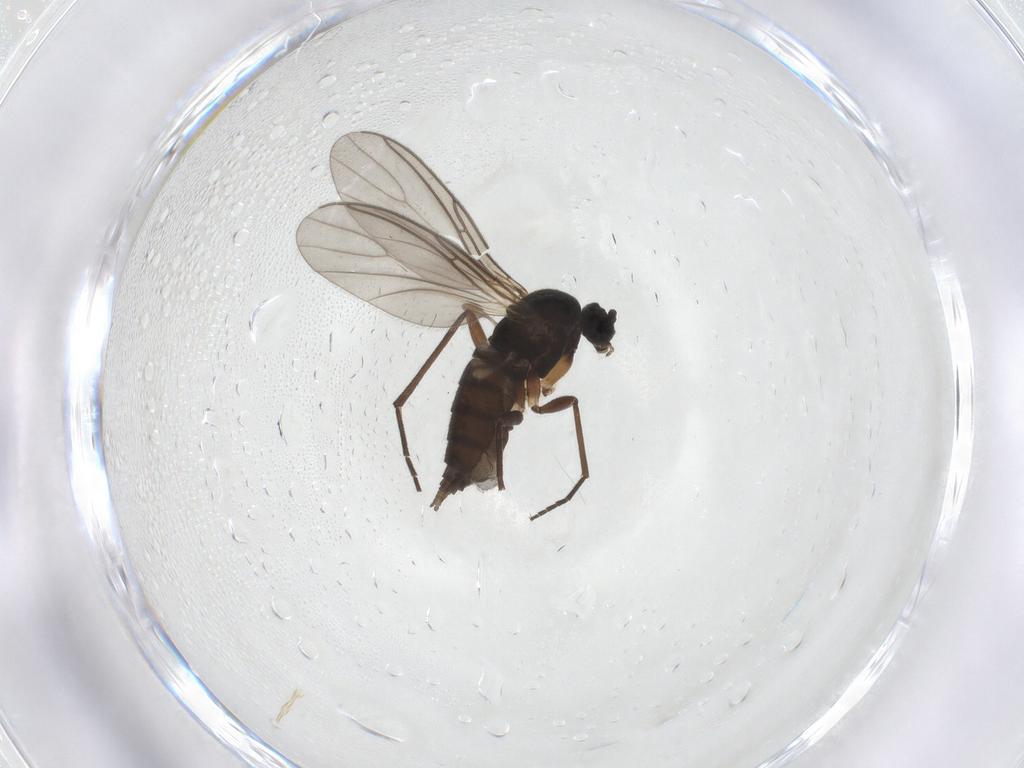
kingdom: Animalia
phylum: Arthropoda
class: Insecta
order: Diptera
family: Sciaridae
